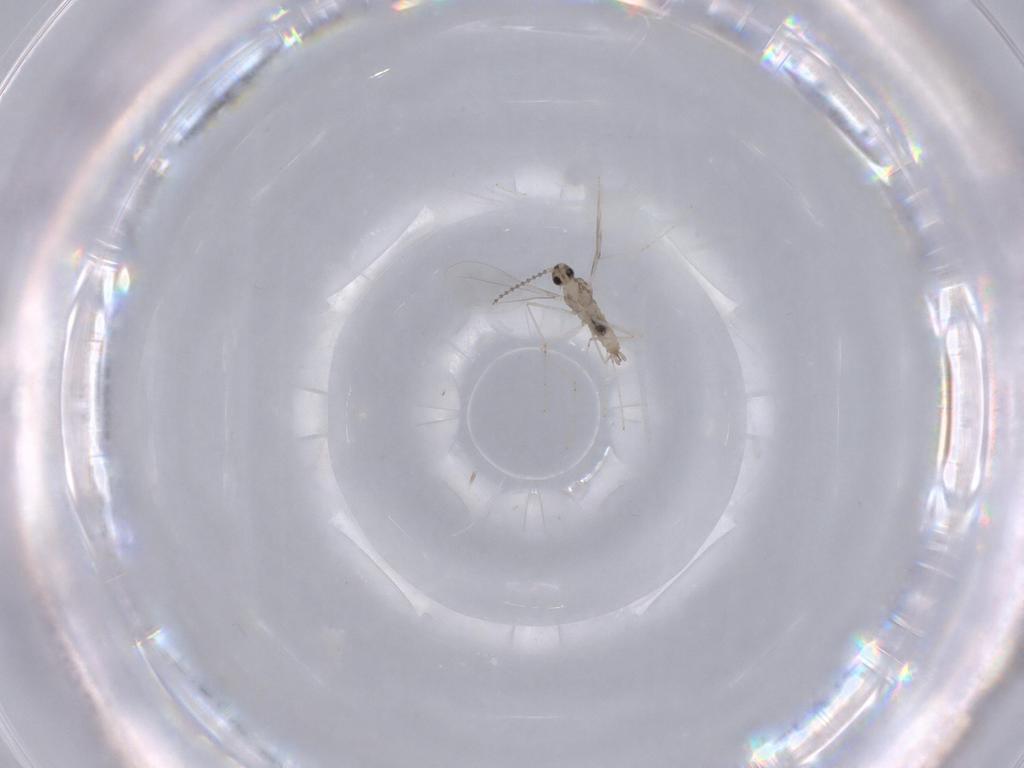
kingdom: Animalia
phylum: Arthropoda
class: Insecta
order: Diptera
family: Cecidomyiidae
